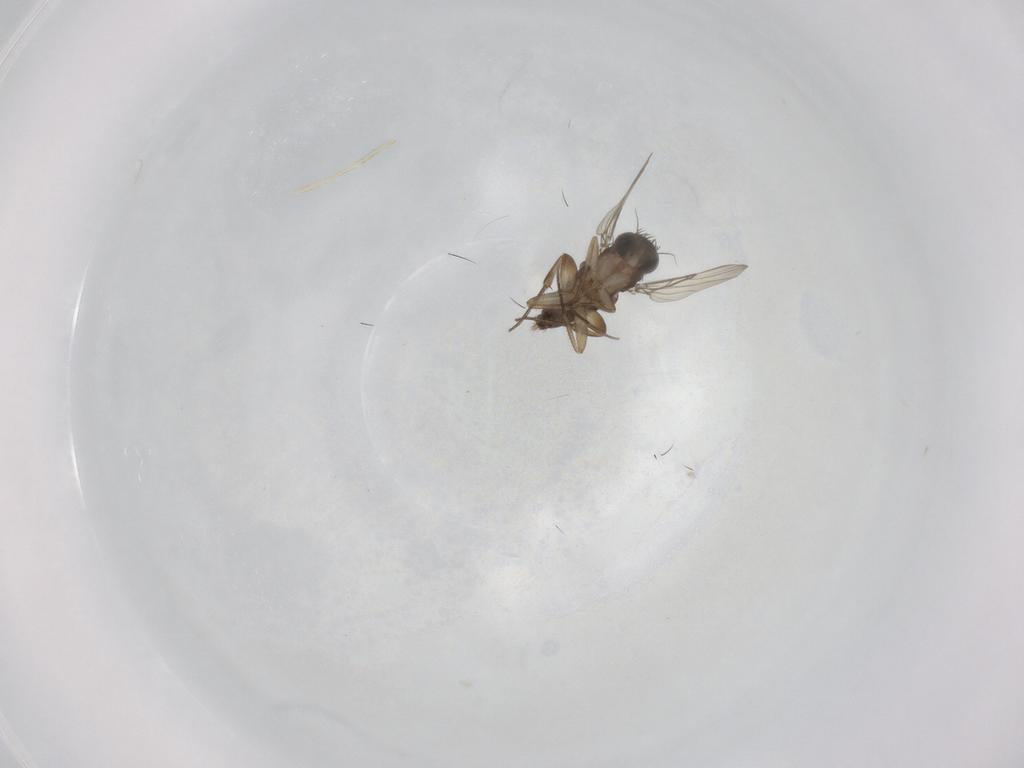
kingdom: Animalia
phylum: Arthropoda
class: Insecta
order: Diptera
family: Phoridae
